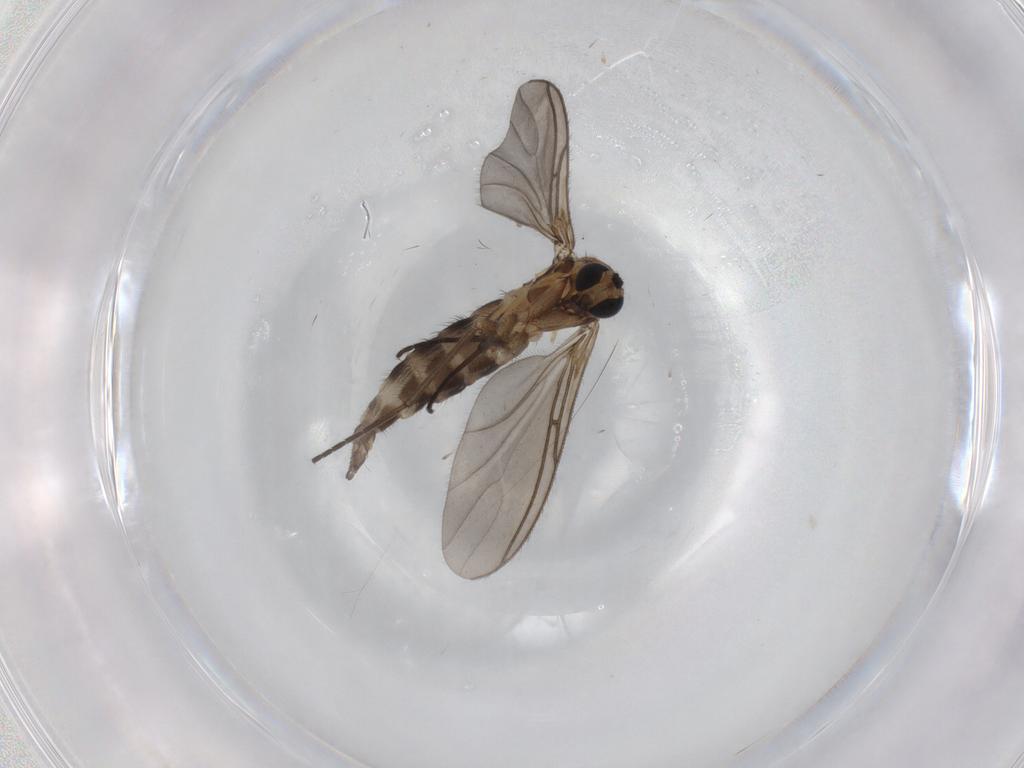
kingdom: Animalia
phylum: Arthropoda
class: Insecta
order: Diptera
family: Sciaridae
